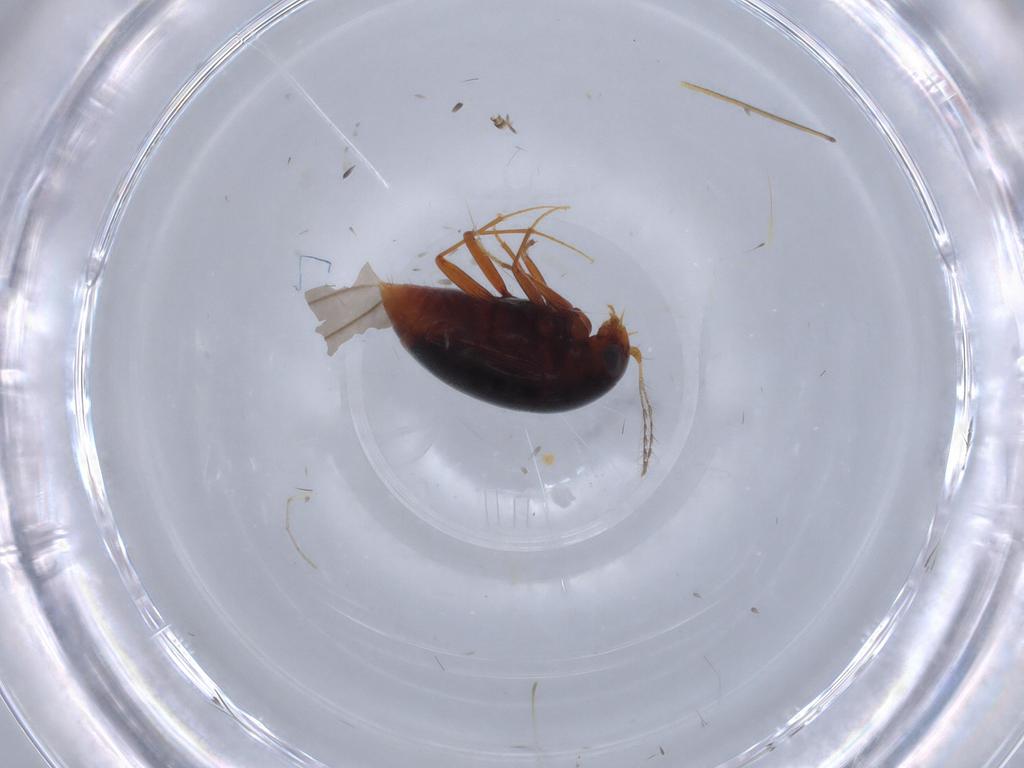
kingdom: Animalia
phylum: Arthropoda
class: Insecta
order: Coleoptera
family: Staphylinidae
